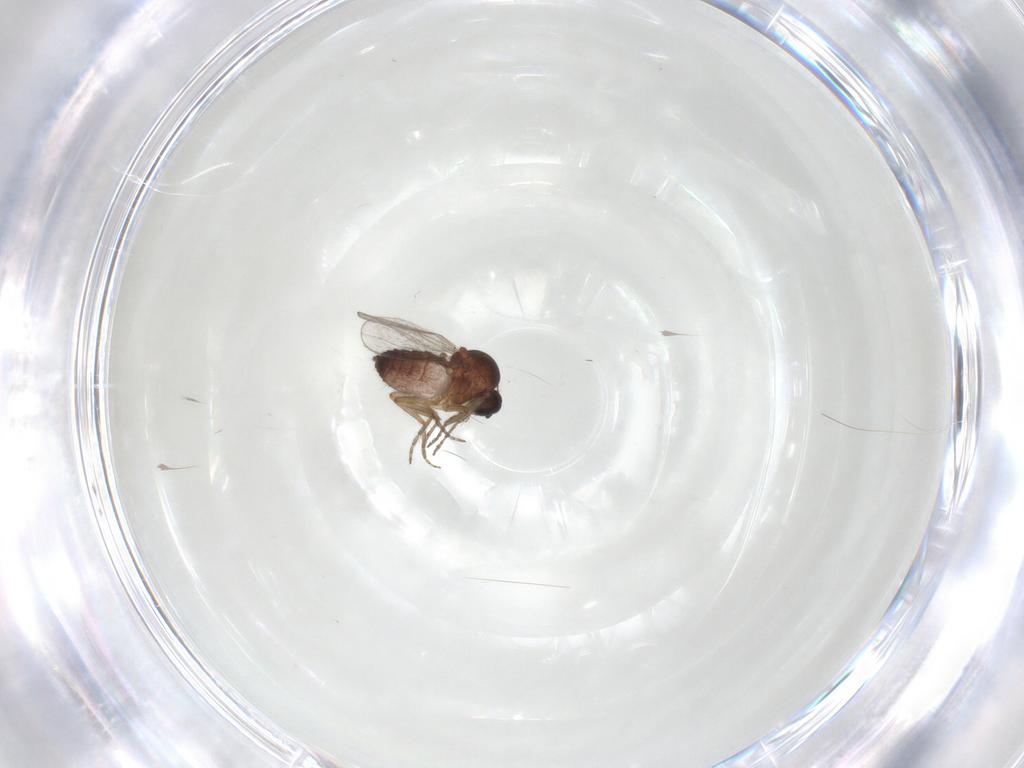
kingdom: Animalia
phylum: Arthropoda
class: Insecta
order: Diptera
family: Ceratopogonidae
